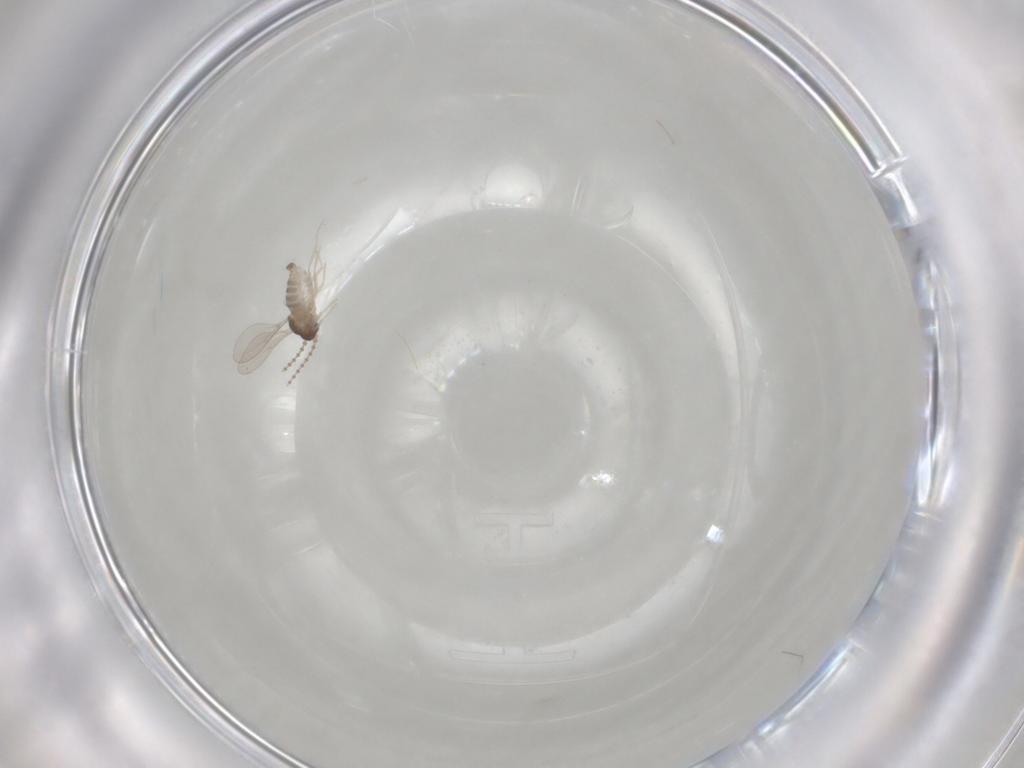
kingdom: Animalia
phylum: Arthropoda
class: Insecta
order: Diptera
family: Cecidomyiidae
